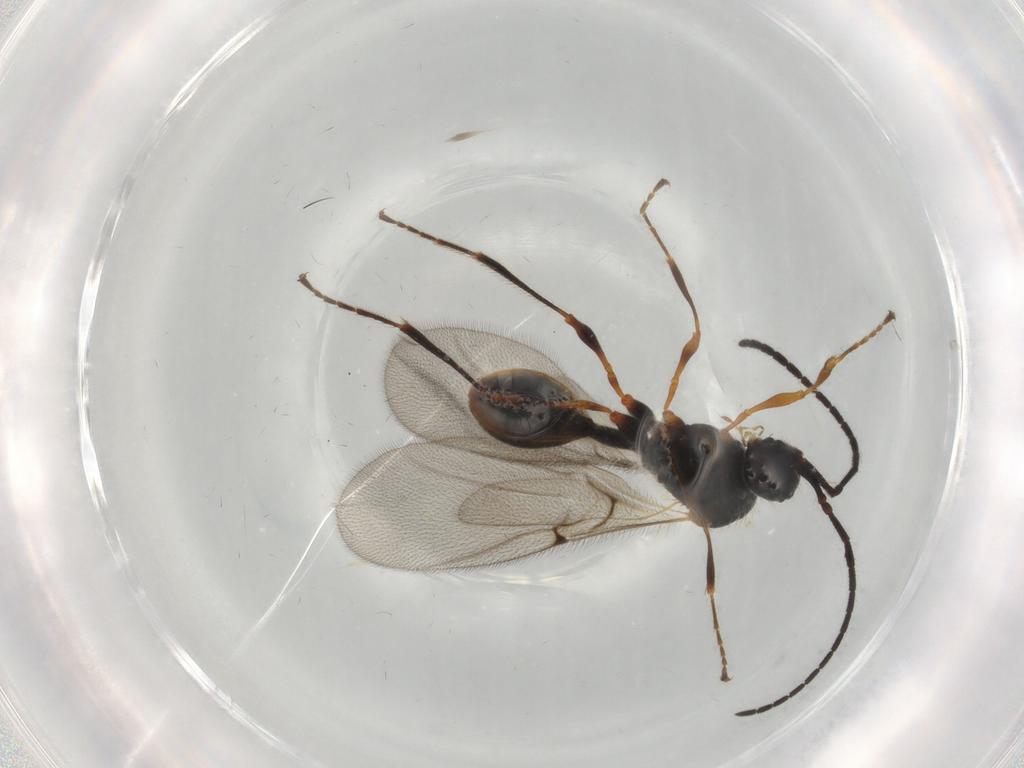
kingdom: Animalia
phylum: Arthropoda
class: Insecta
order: Hymenoptera
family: Diapriidae
